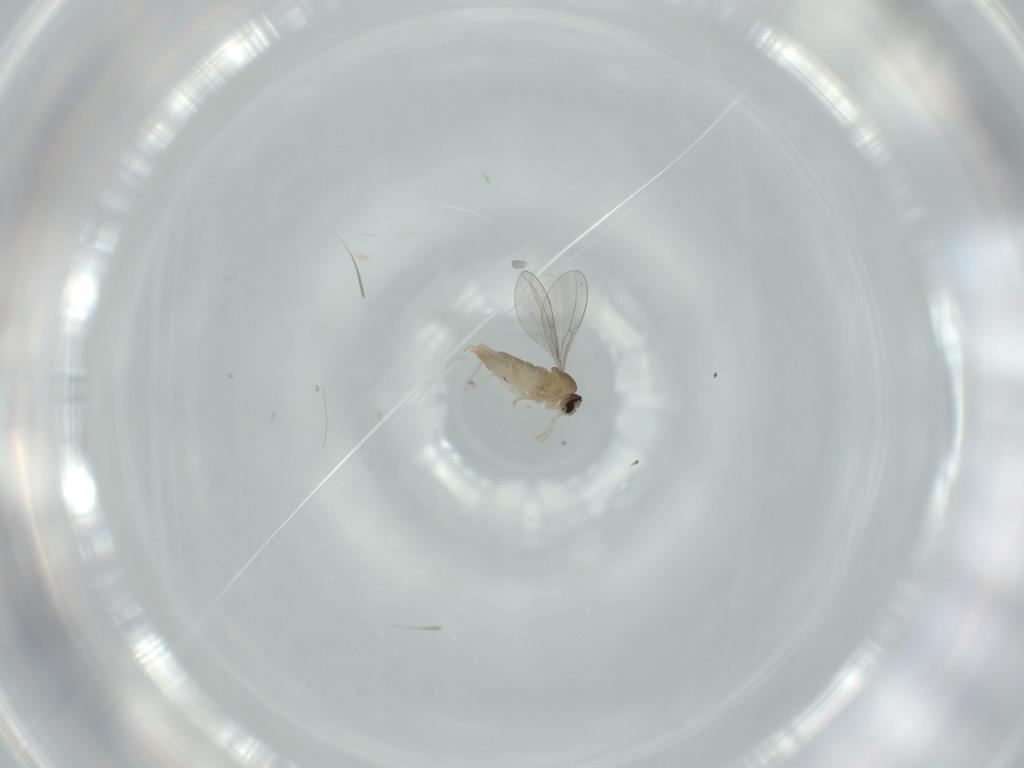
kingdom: Animalia
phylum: Arthropoda
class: Insecta
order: Diptera
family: Cecidomyiidae
